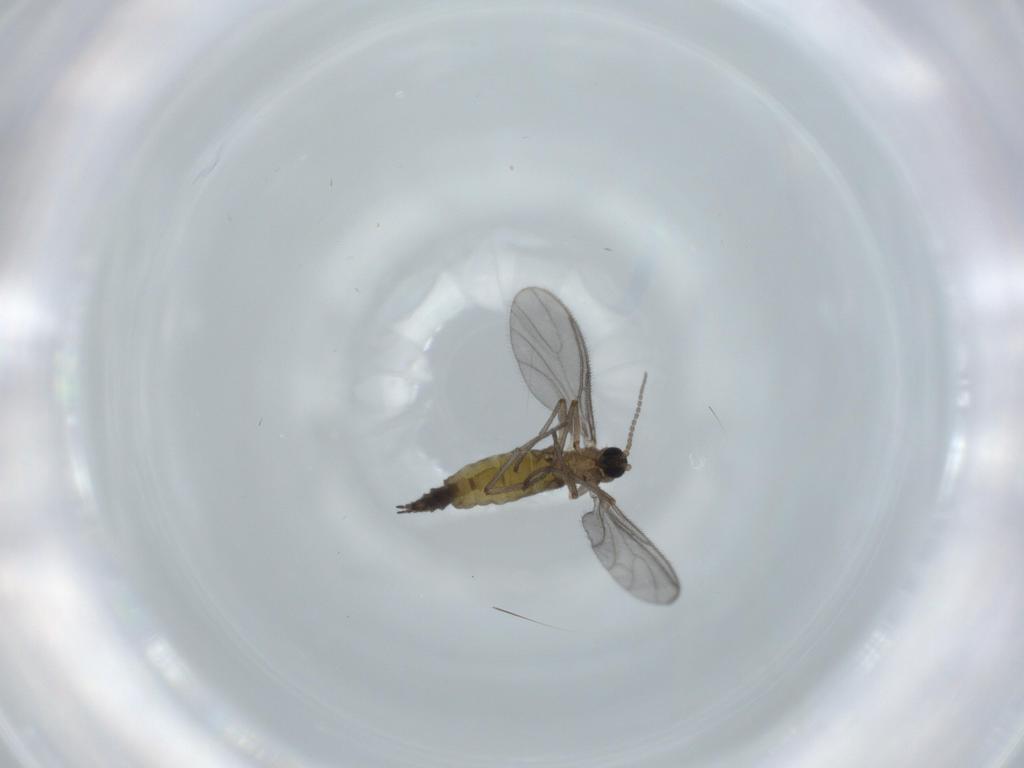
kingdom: Animalia
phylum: Arthropoda
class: Insecta
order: Diptera
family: Sciaridae
